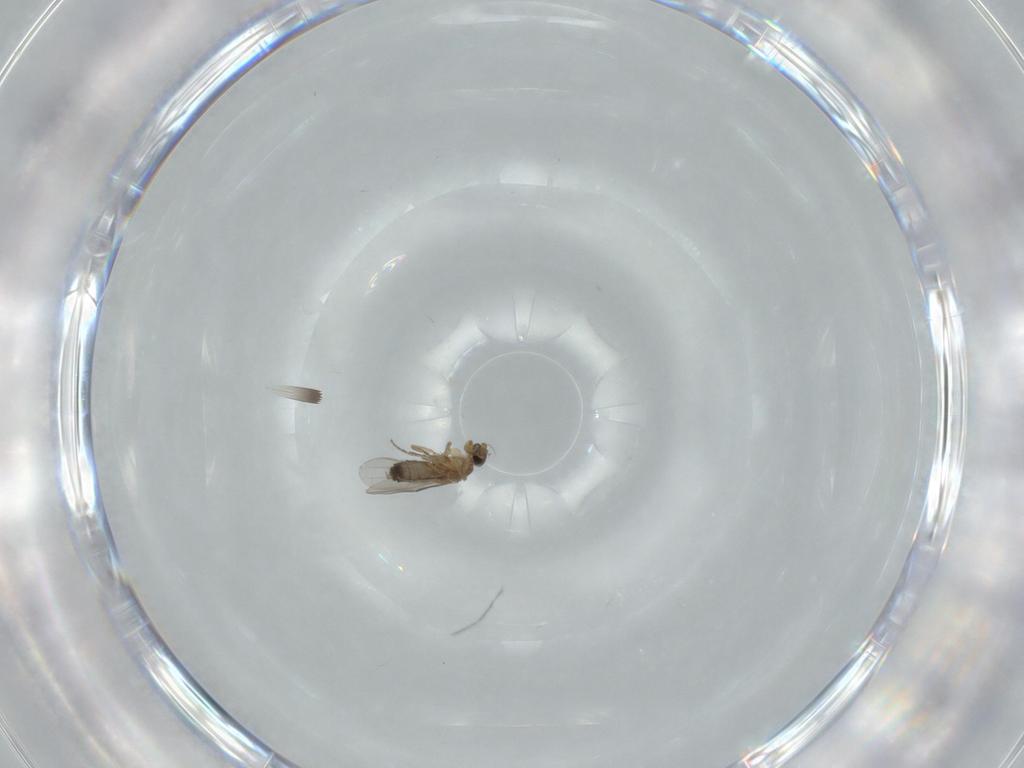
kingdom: Animalia
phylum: Arthropoda
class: Insecta
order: Diptera
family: Phoridae
